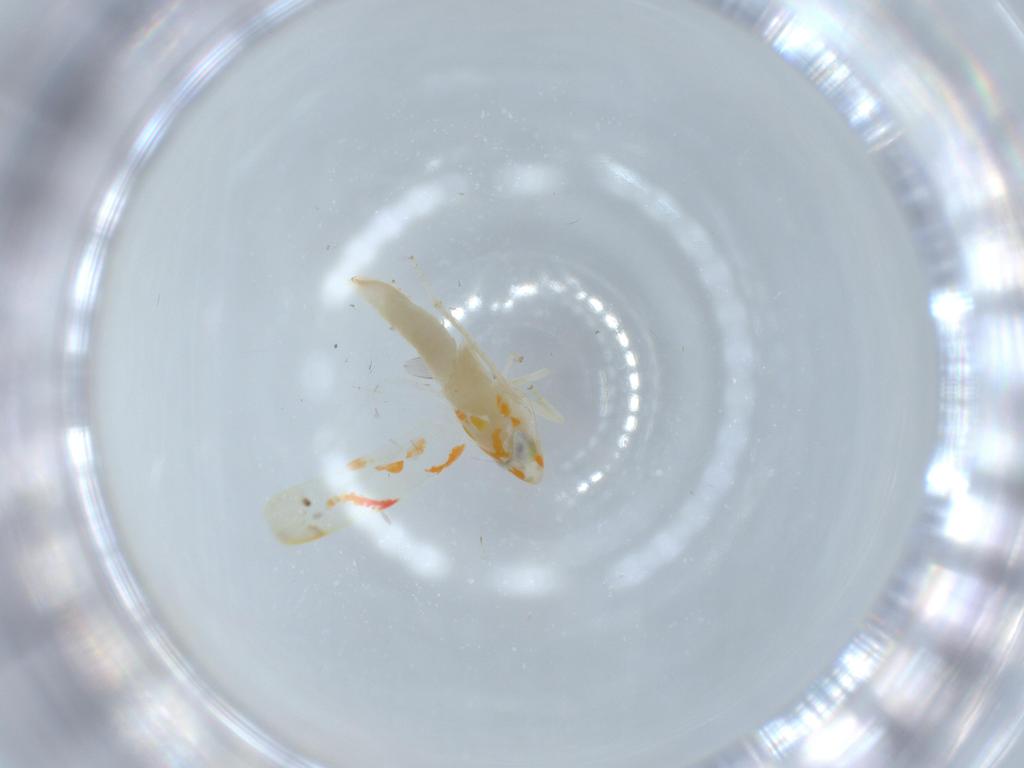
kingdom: Animalia
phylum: Arthropoda
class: Insecta
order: Hemiptera
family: Cicadellidae
